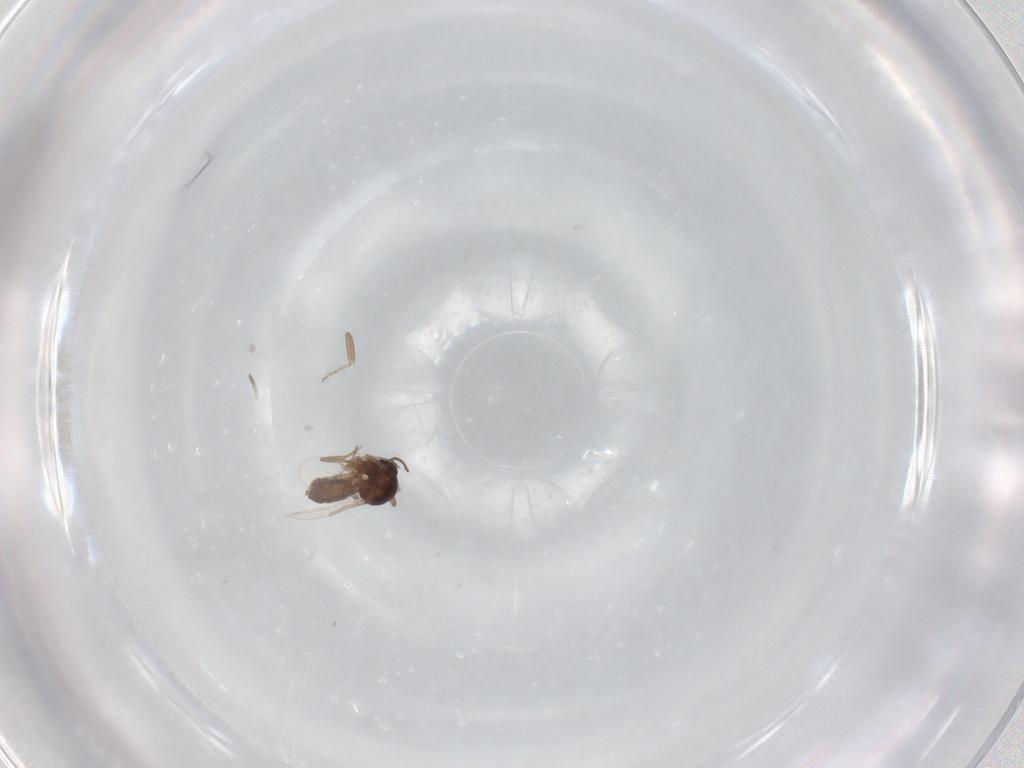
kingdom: Animalia
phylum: Arthropoda
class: Insecta
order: Diptera
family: Ceratopogonidae
